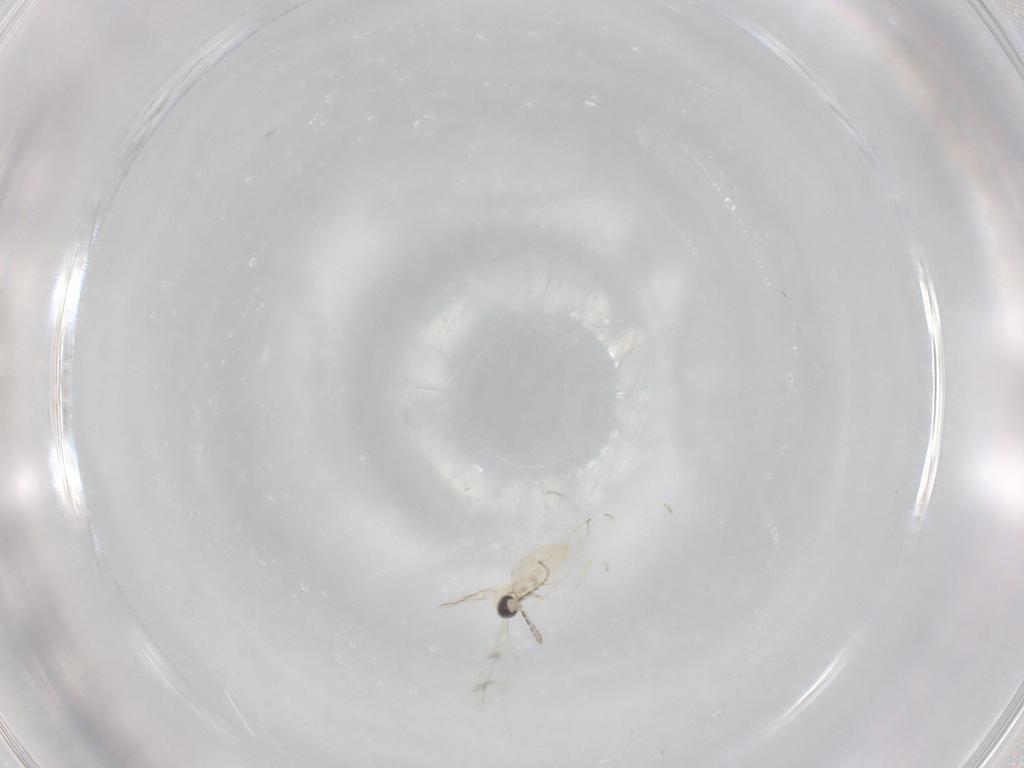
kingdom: Animalia
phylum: Arthropoda
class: Insecta
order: Diptera
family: Cecidomyiidae
